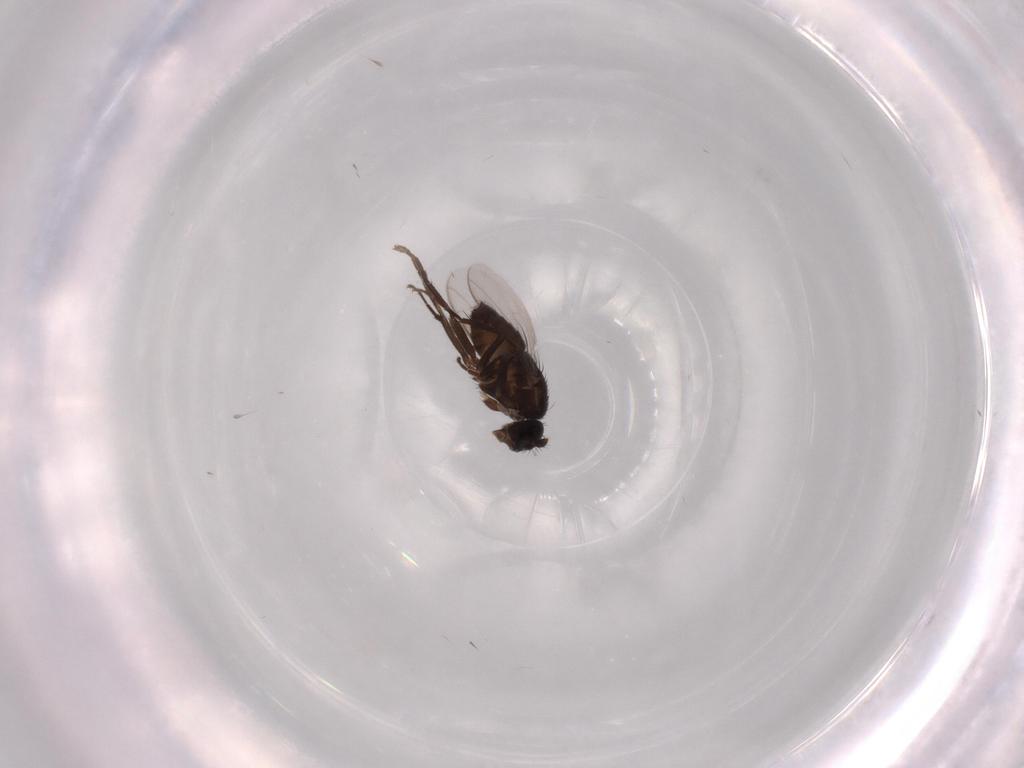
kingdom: Animalia
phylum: Arthropoda
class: Insecta
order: Diptera
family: Sphaeroceridae
